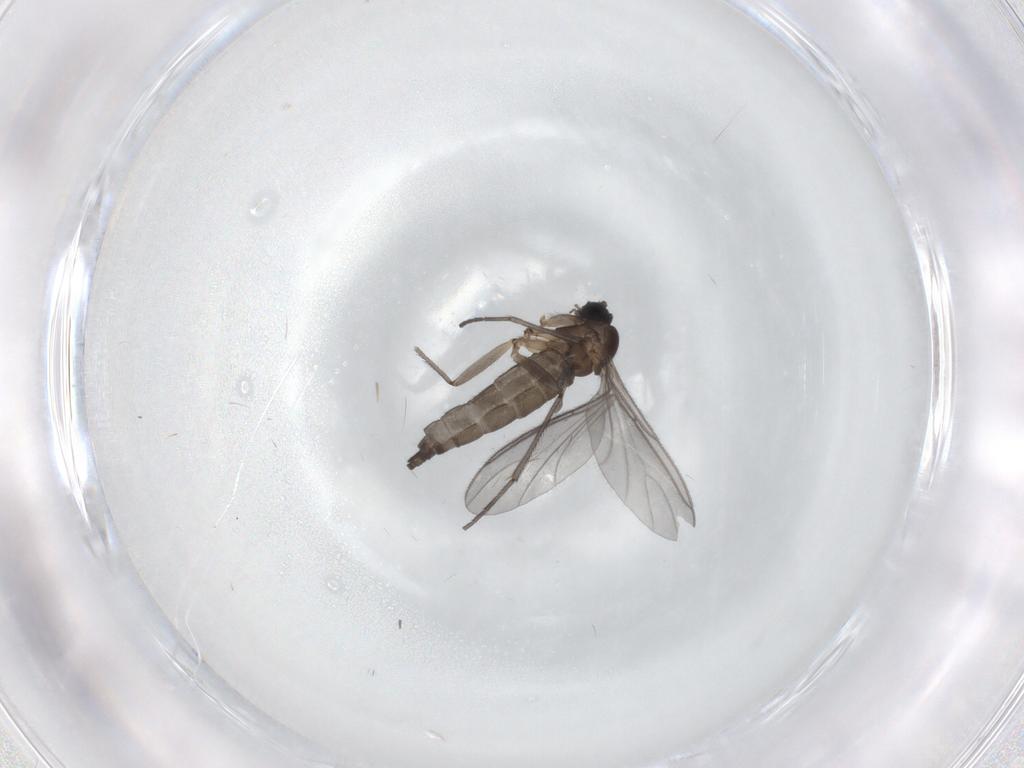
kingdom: Animalia
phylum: Arthropoda
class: Insecta
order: Diptera
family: Sciaridae
